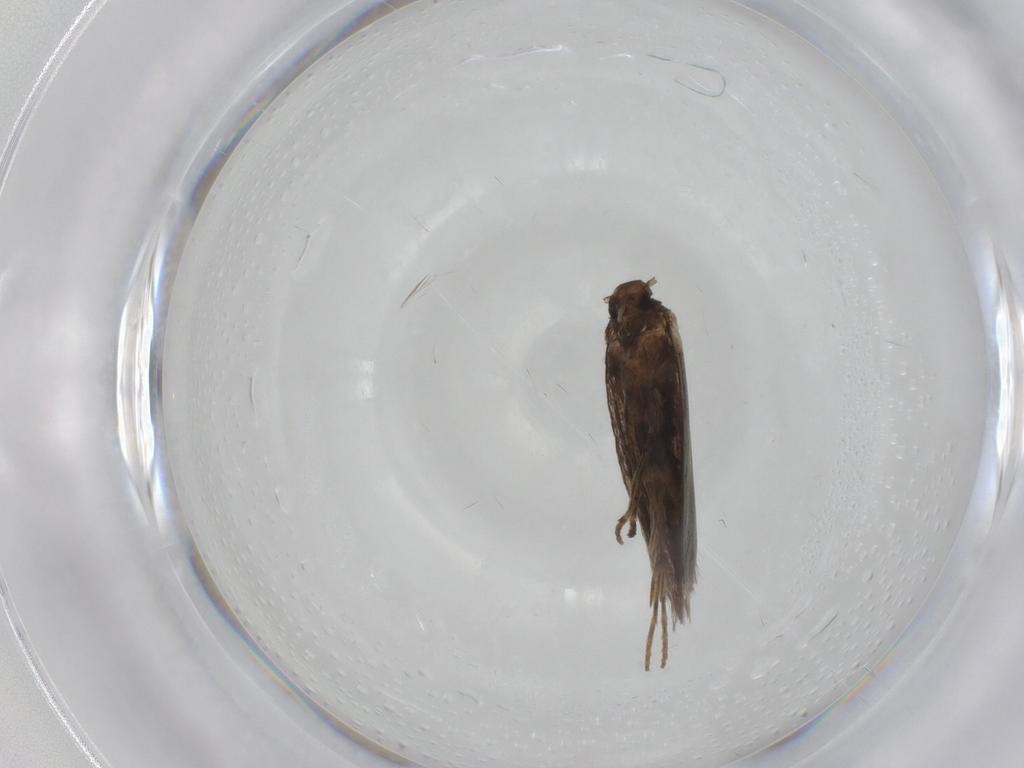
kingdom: Animalia
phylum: Arthropoda
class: Insecta
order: Lepidoptera
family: Elachistidae
